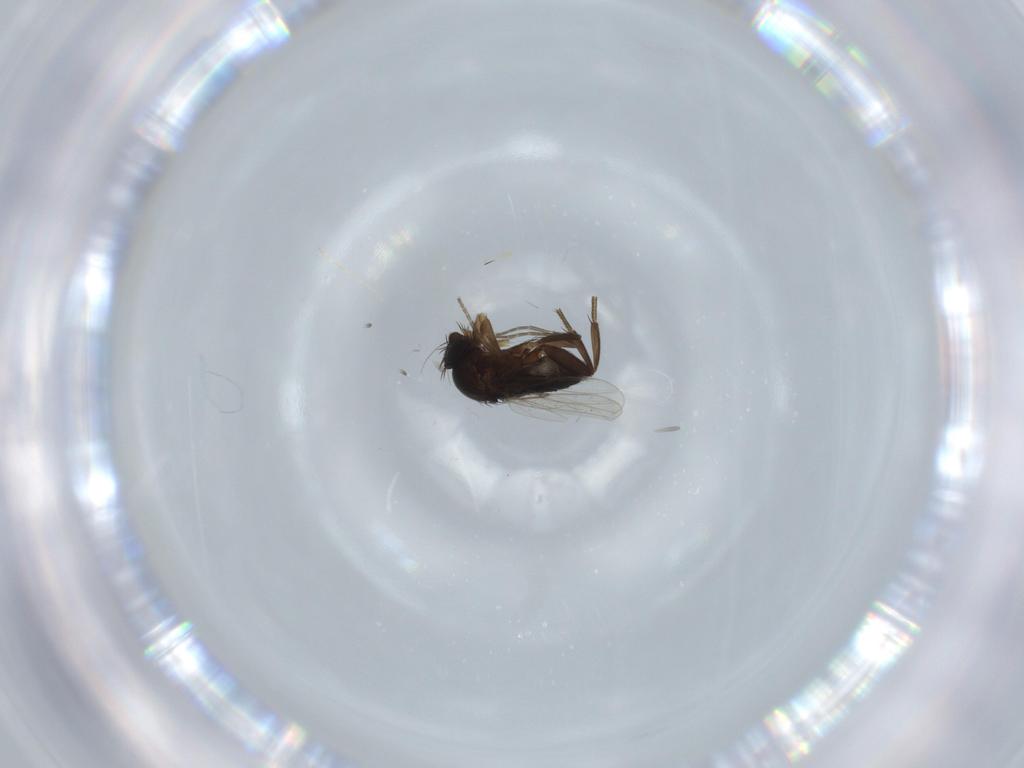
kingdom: Animalia
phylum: Arthropoda
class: Insecta
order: Diptera
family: Phoridae
